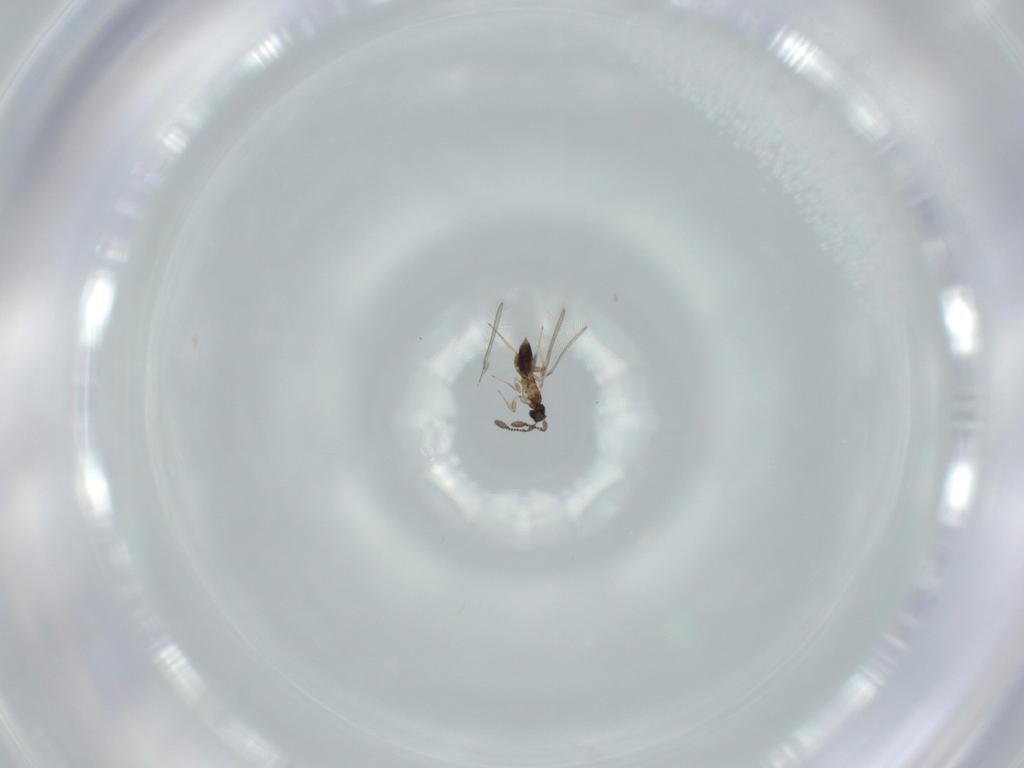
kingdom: Animalia
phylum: Arthropoda
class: Insecta
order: Hymenoptera
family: Mymaridae
